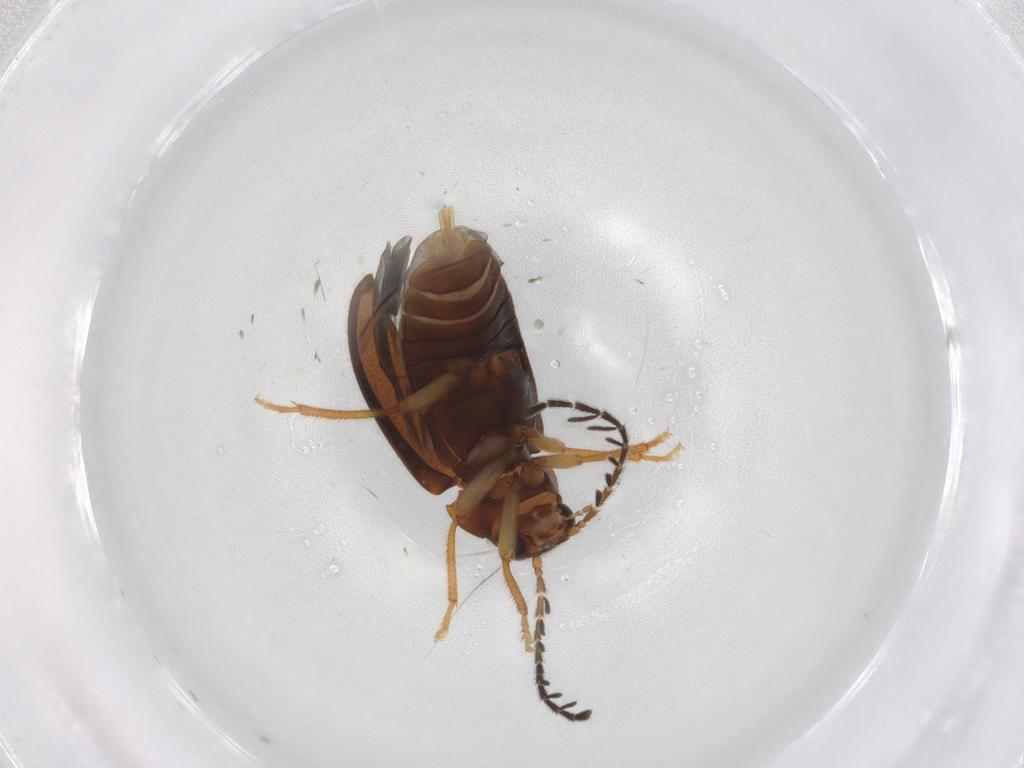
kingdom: Animalia
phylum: Arthropoda
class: Insecta
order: Coleoptera
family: Ptilodactylidae
